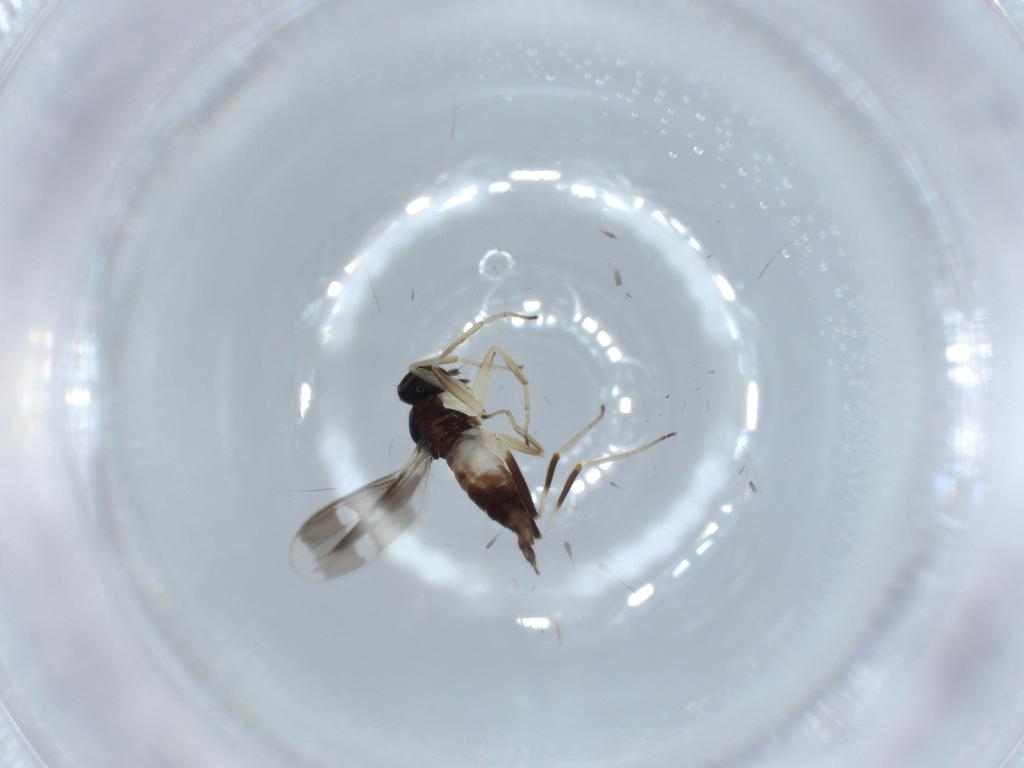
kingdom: Animalia
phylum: Arthropoda
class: Insecta
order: Diptera
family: Hybotidae
